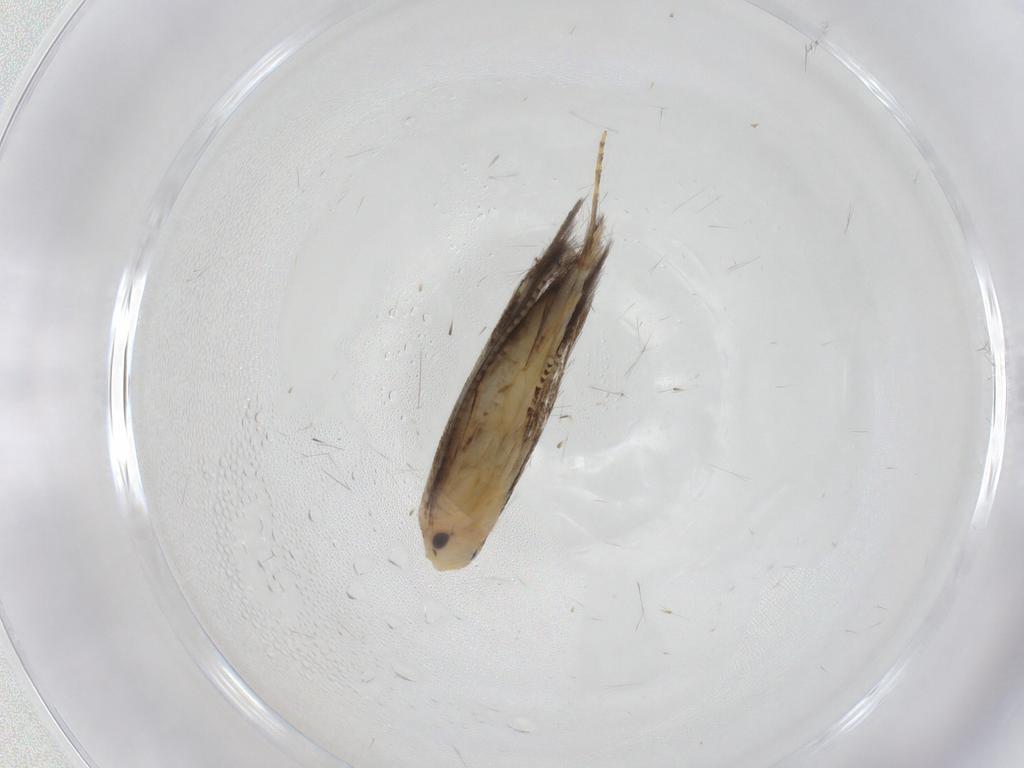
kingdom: Animalia
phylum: Arthropoda
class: Insecta
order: Lepidoptera
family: Bucculatricidae
